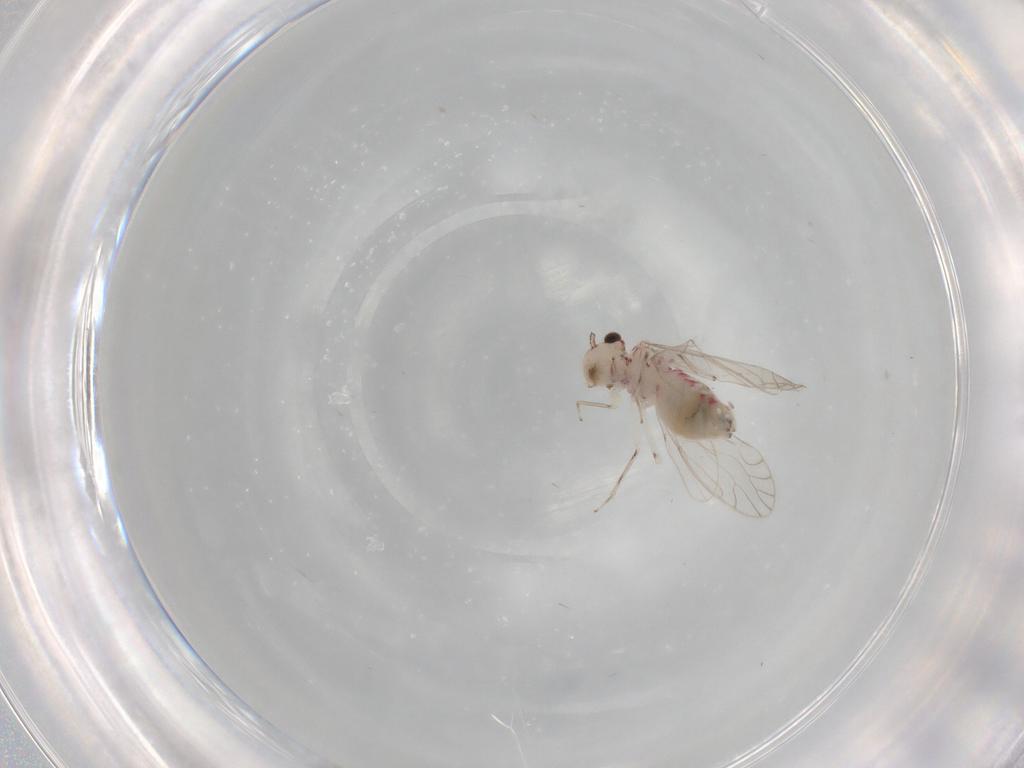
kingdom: Animalia
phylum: Arthropoda
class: Insecta
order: Psocodea
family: Caeciliusidae
